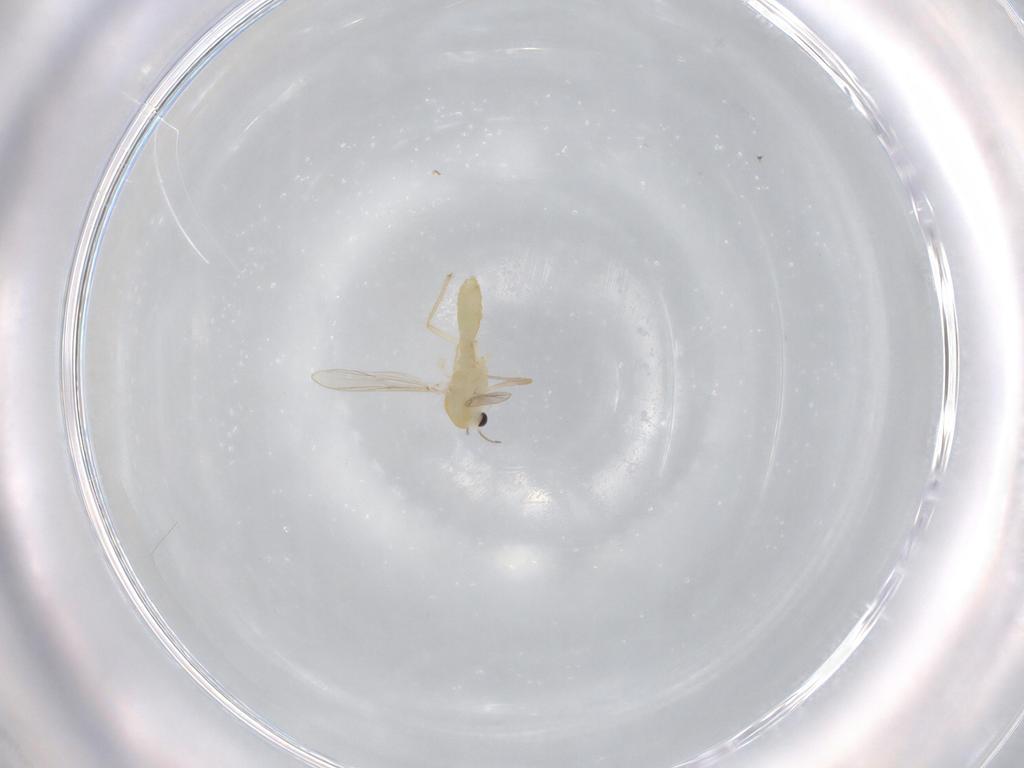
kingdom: Animalia
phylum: Arthropoda
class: Insecta
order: Diptera
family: Chironomidae
